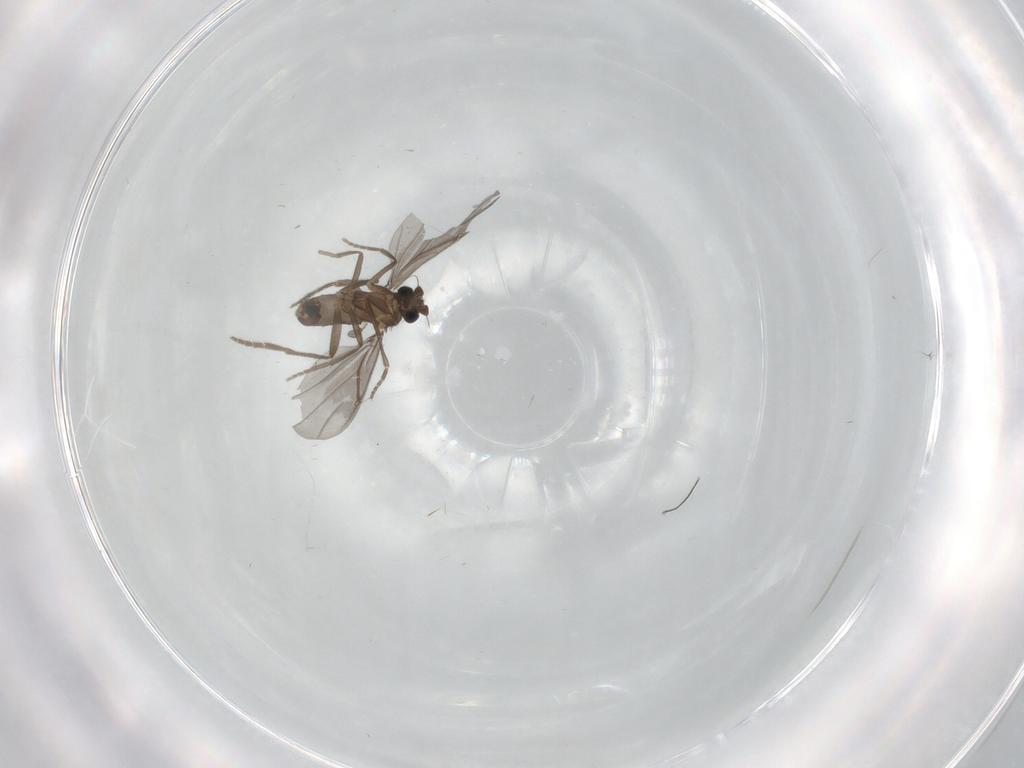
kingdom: Animalia
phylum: Arthropoda
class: Insecta
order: Diptera
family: Phoridae
